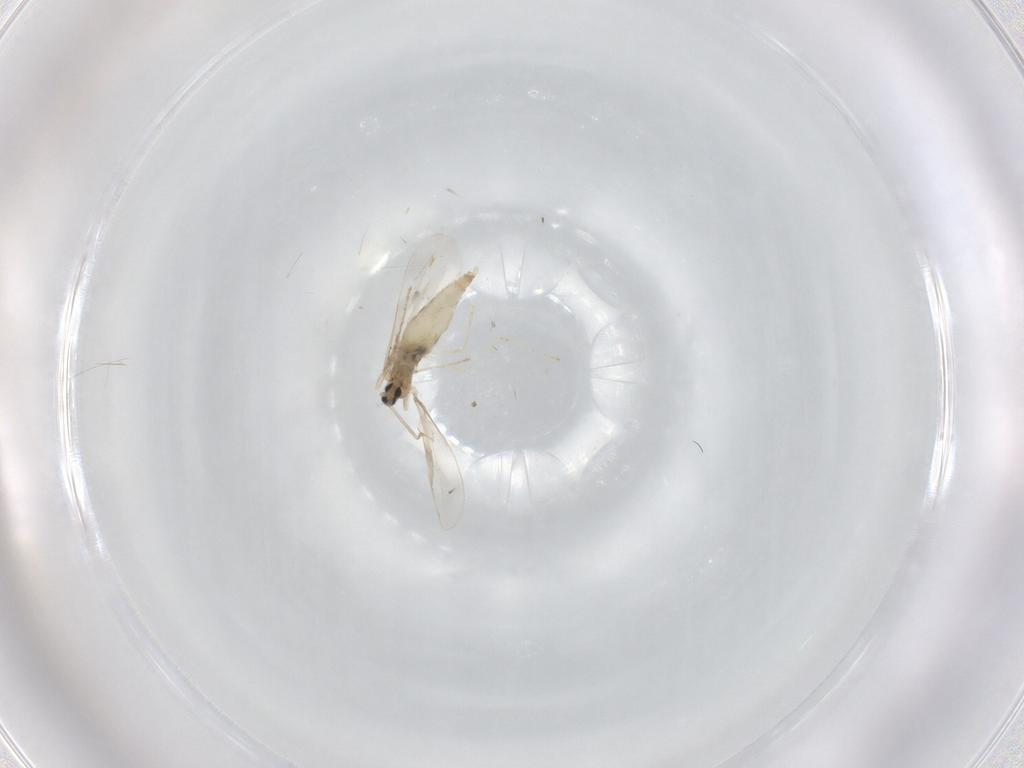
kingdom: Animalia
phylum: Arthropoda
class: Insecta
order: Diptera
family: Cecidomyiidae
